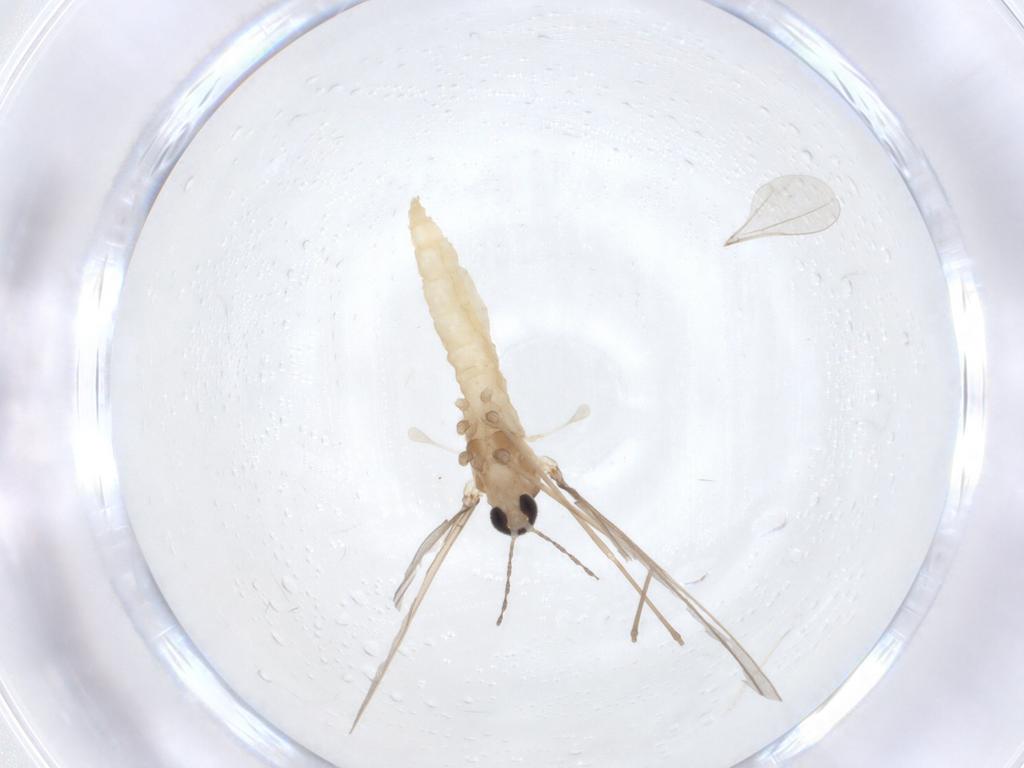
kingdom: Animalia
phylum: Arthropoda
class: Insecta
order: Diptera
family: Cecidomyiidae
